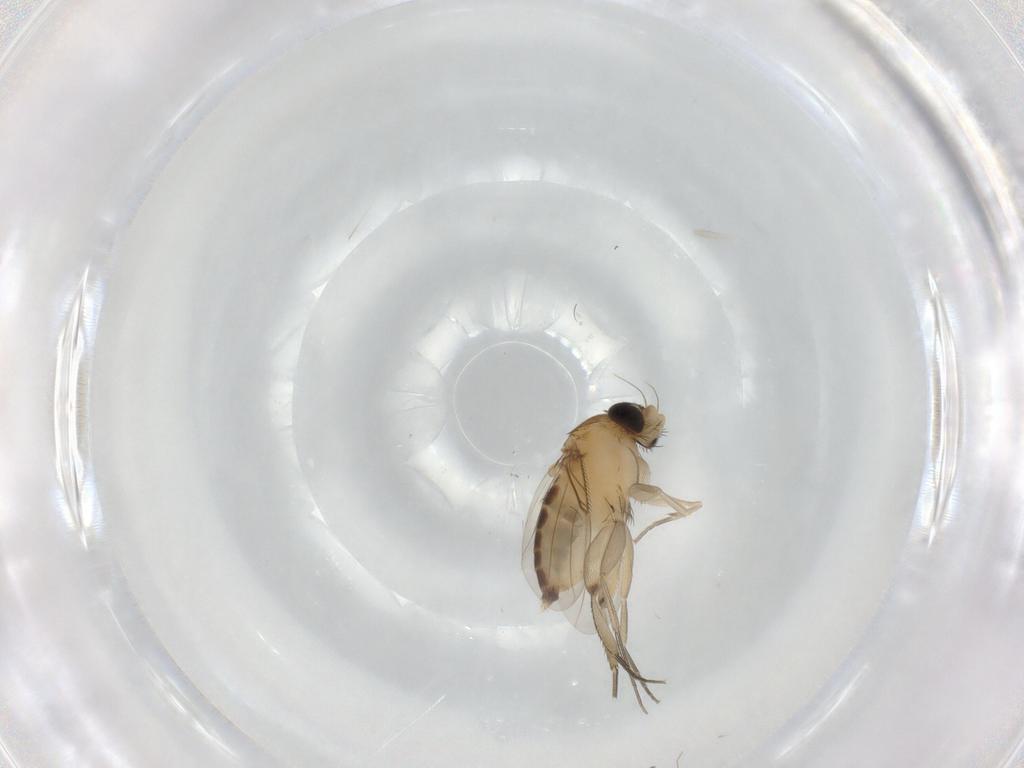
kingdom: Animalia
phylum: Arthropoda
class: Insecta
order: Diptera
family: Phoridae
